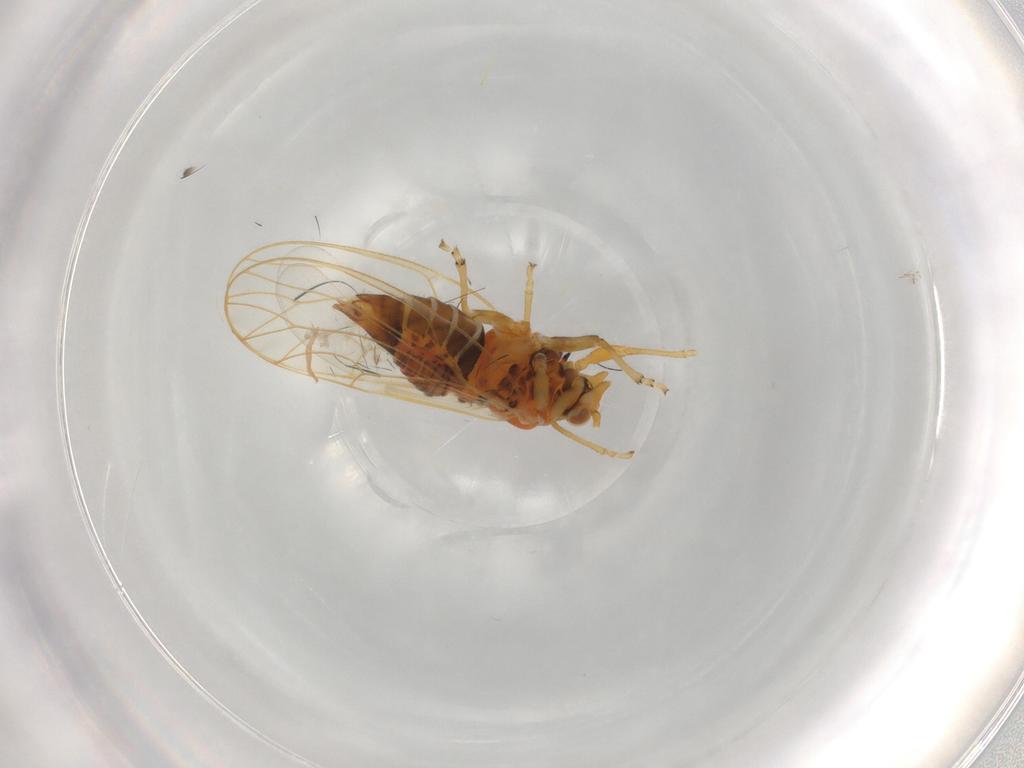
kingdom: Animalia
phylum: Arthropoda
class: Insecta
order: Hemiptera
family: Psyllidae
